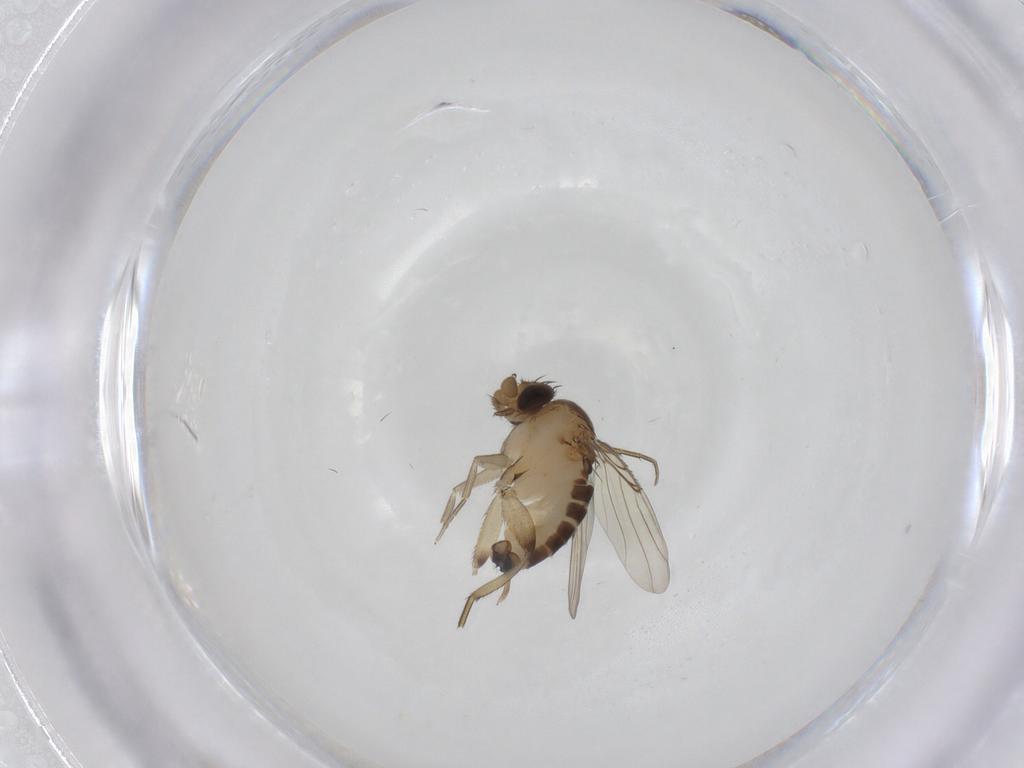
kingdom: Animalia
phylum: Arthropoda
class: Insecta
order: Diptera
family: Phoridae
